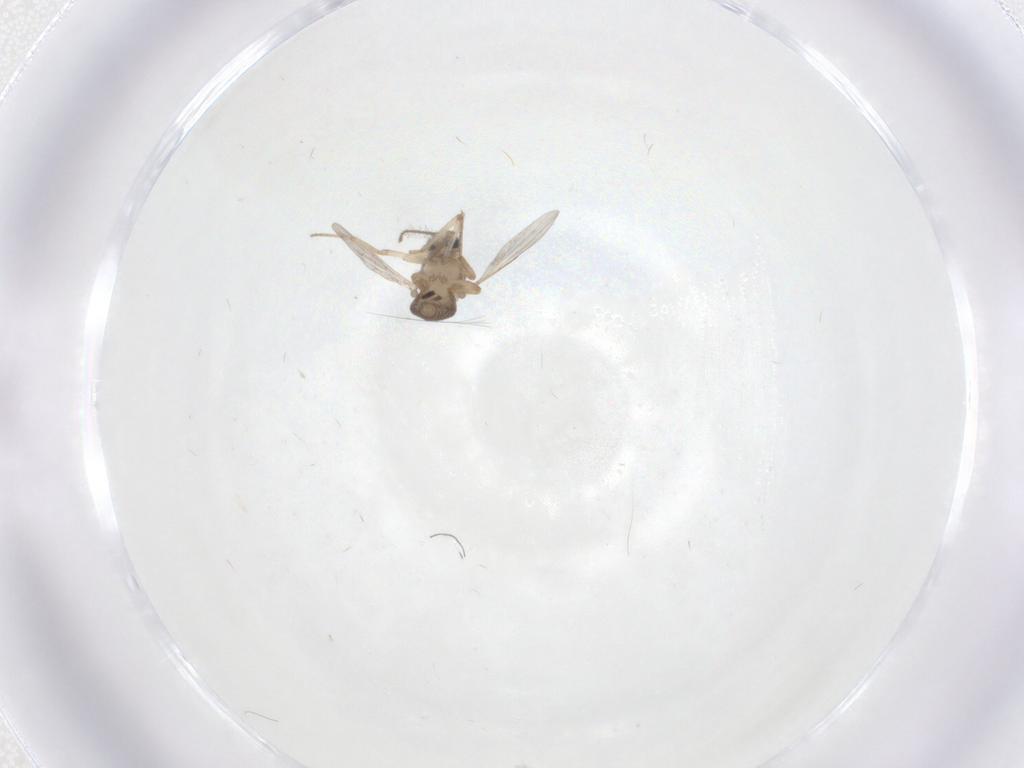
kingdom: Animalia
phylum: Arthropoda
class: Insecta
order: Diptera
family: Ceratopogonidae
